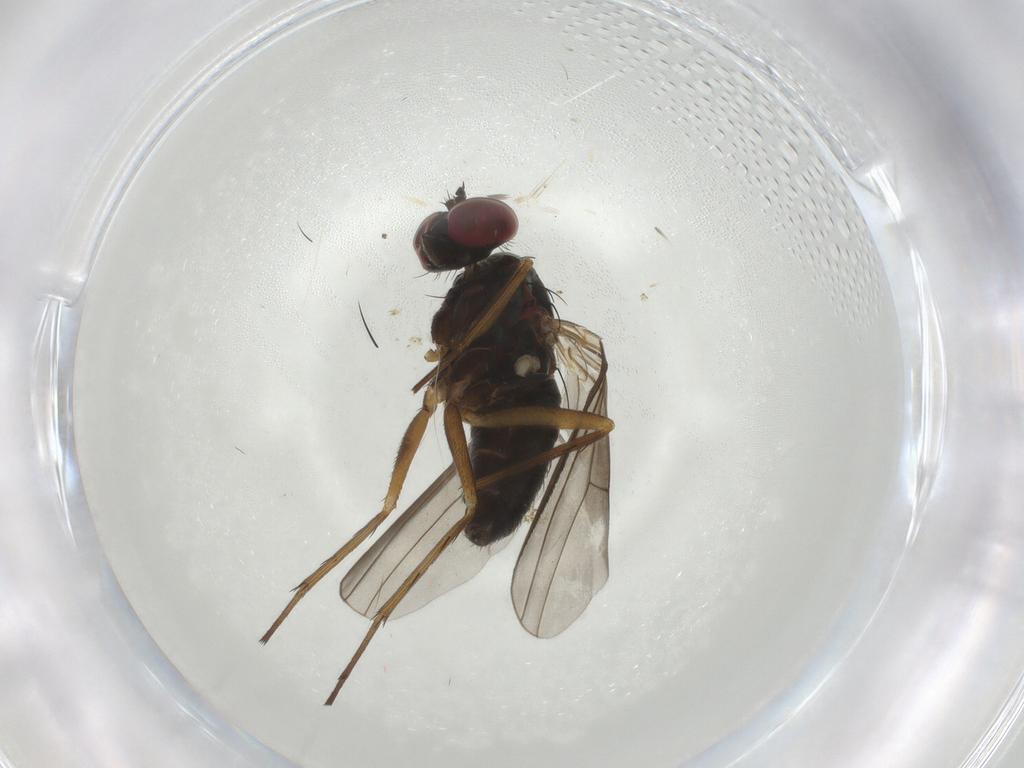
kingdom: Animalia
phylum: Arthropoda
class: Insecta
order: Diptera
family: Dolichopodidae
